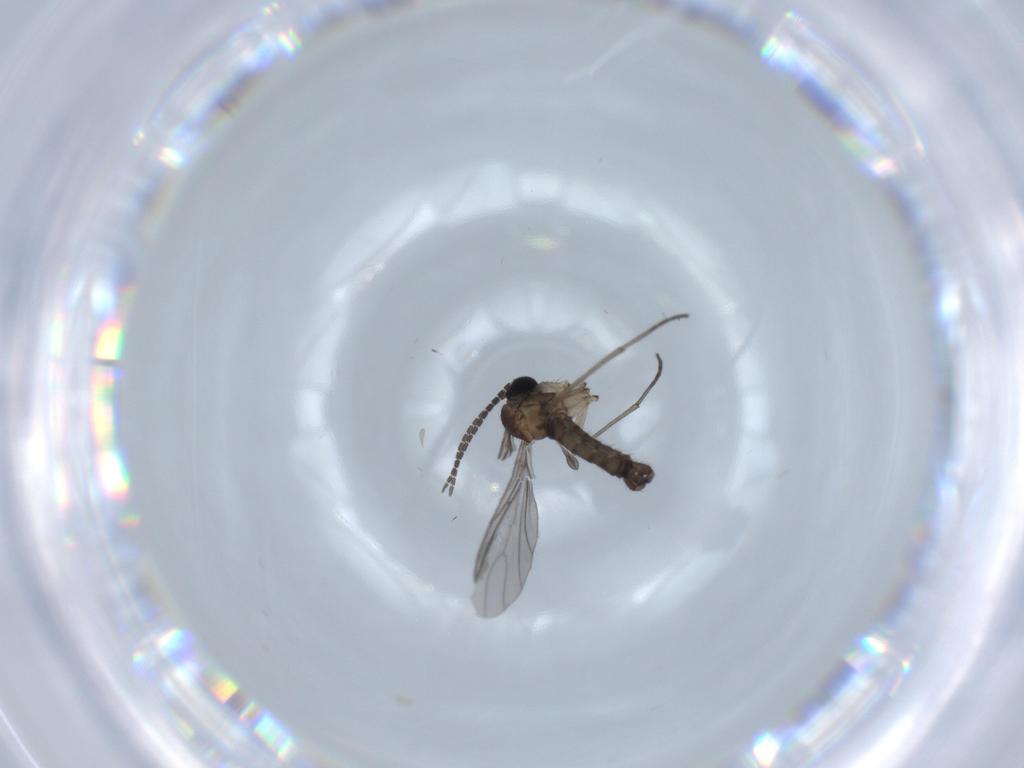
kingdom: Animalia
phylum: Arthropoda
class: Insecta
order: Diptera
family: Sciaridae
